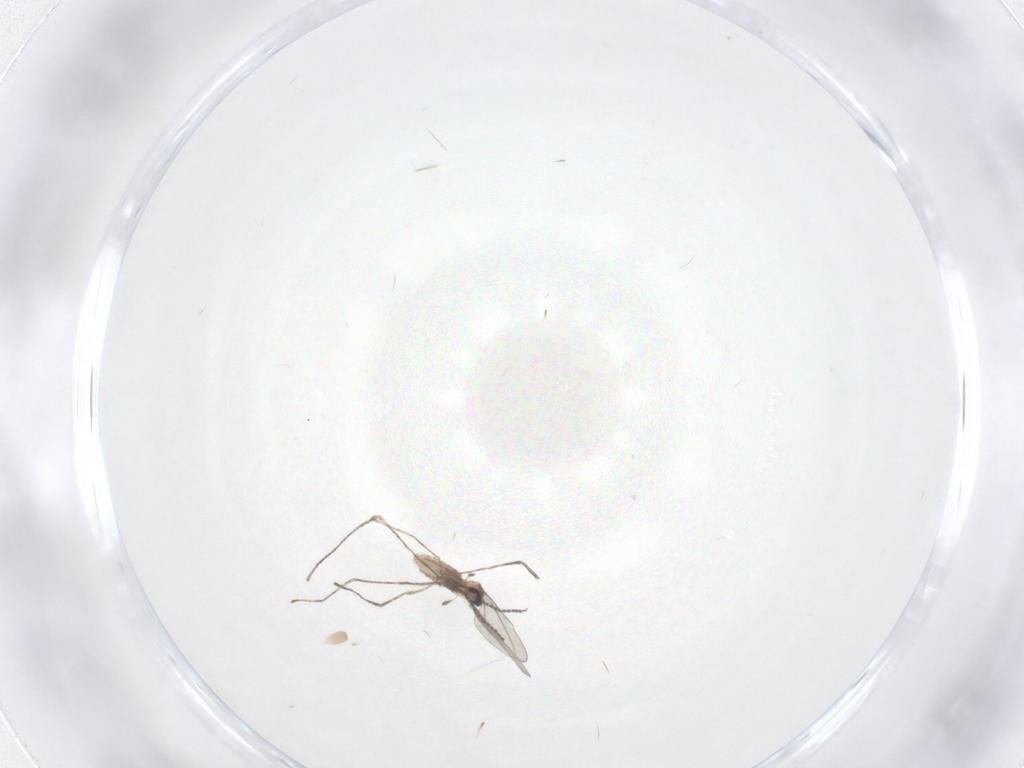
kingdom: Animalia
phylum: Arthropoda
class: Insecta
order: Diptera
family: Cecidomyiidae
